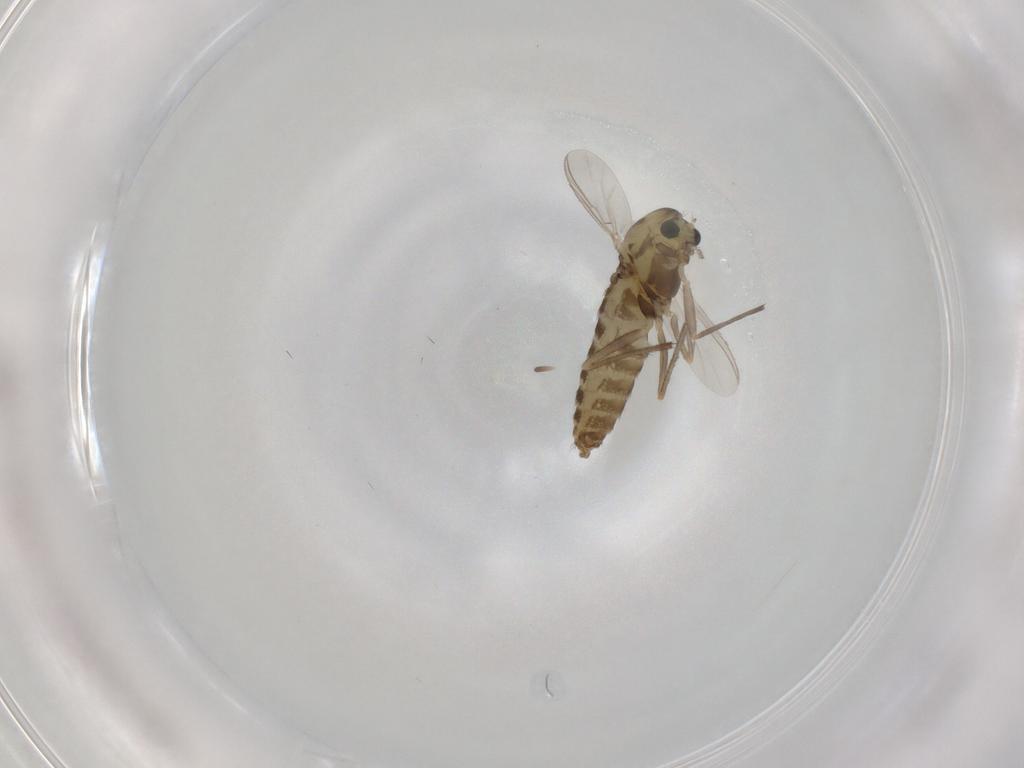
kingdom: Animalia
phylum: Arthropoda
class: Insecta
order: Diptera
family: Chironomidae
